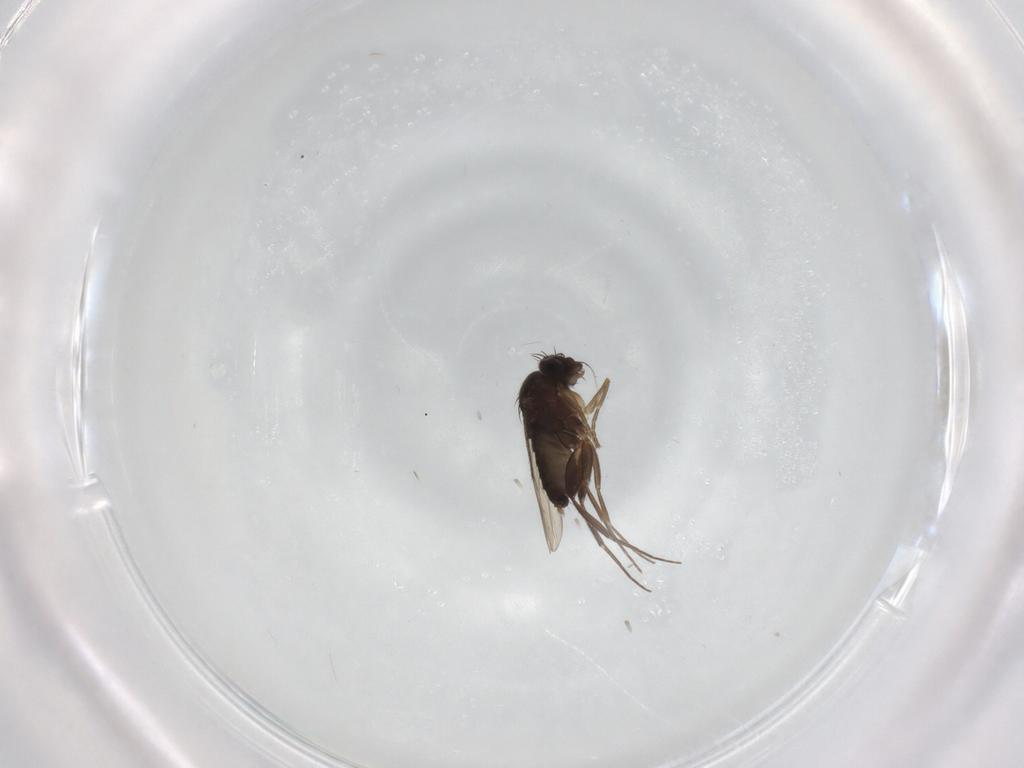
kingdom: Animalia
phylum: Arthropoda
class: Insecta
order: Diptera
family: Phoridae
